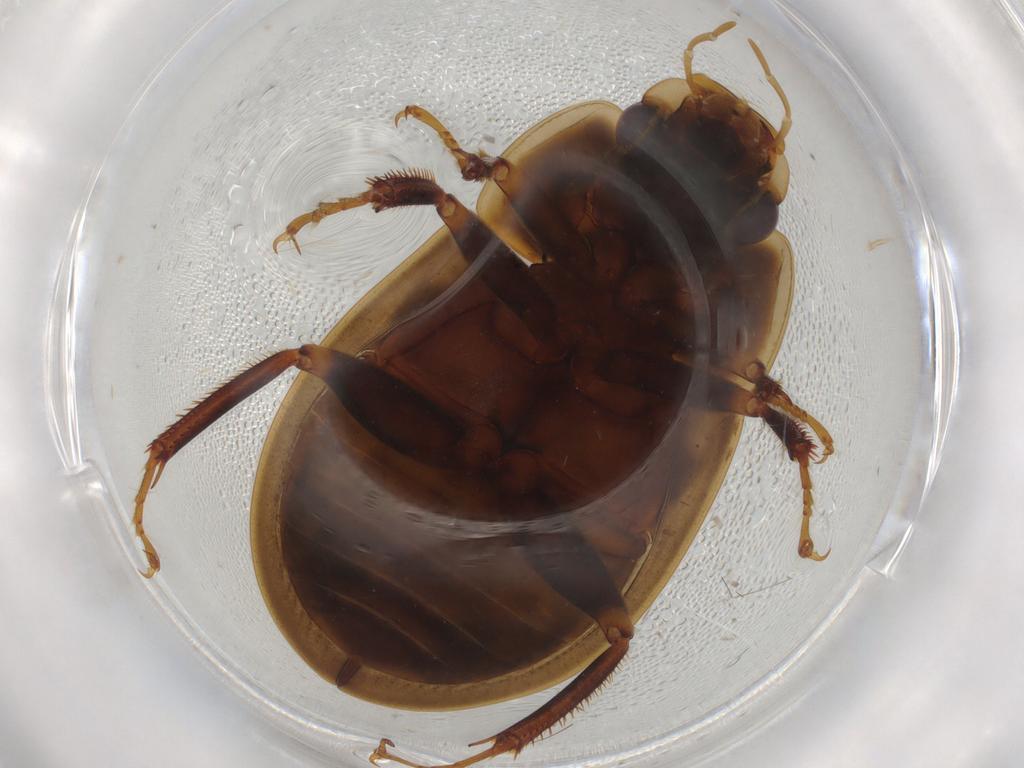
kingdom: Animalia
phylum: Arthropoda
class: Insecta
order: Coleoptera
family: Hydrophilidae
